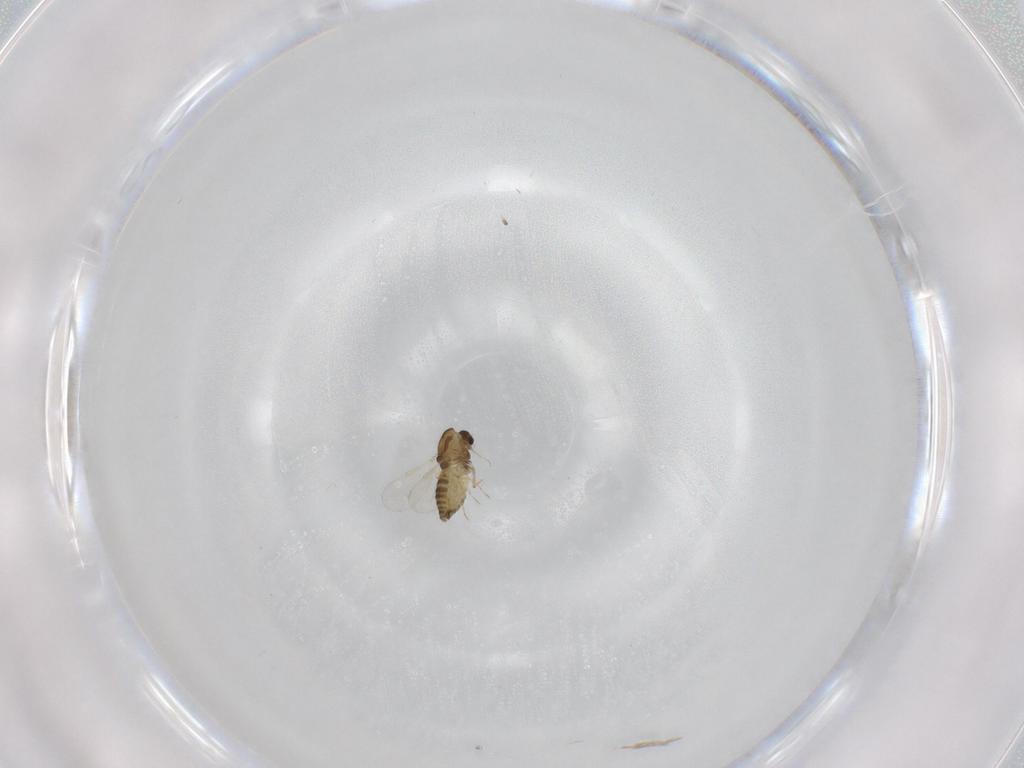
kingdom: Animalia
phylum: Arthropoda
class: Insecta
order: Diptera
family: Chironomidae
